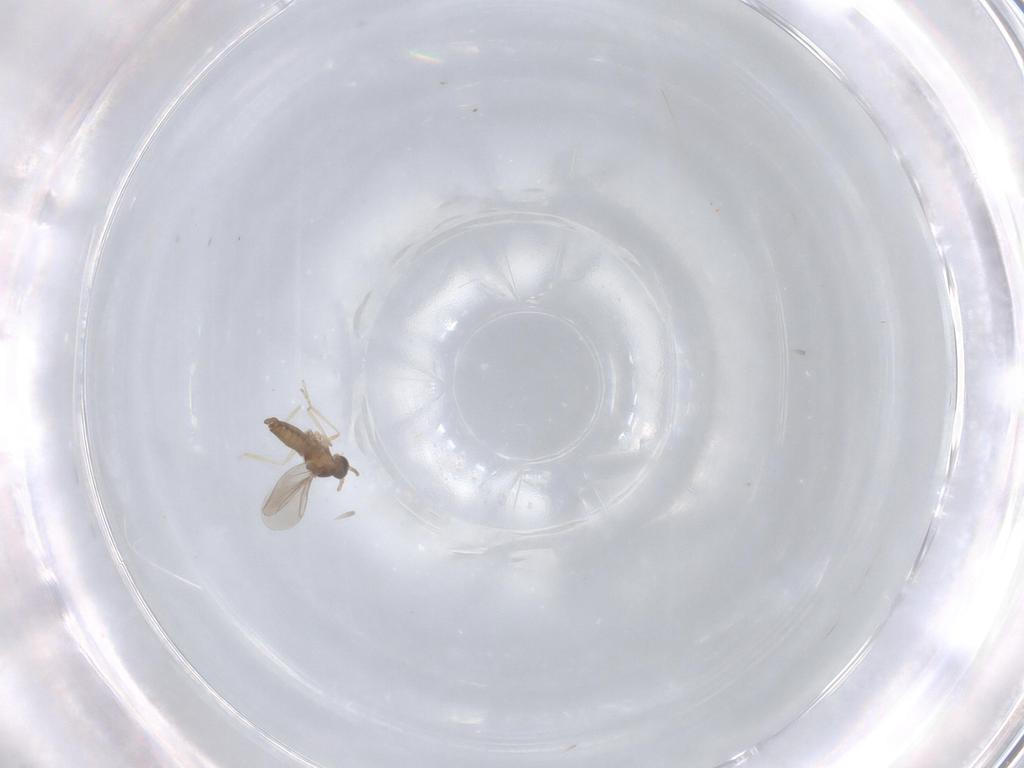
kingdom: Animalia
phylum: Arthropoda
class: Insecta
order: Diptera
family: Cecidomyiidae
